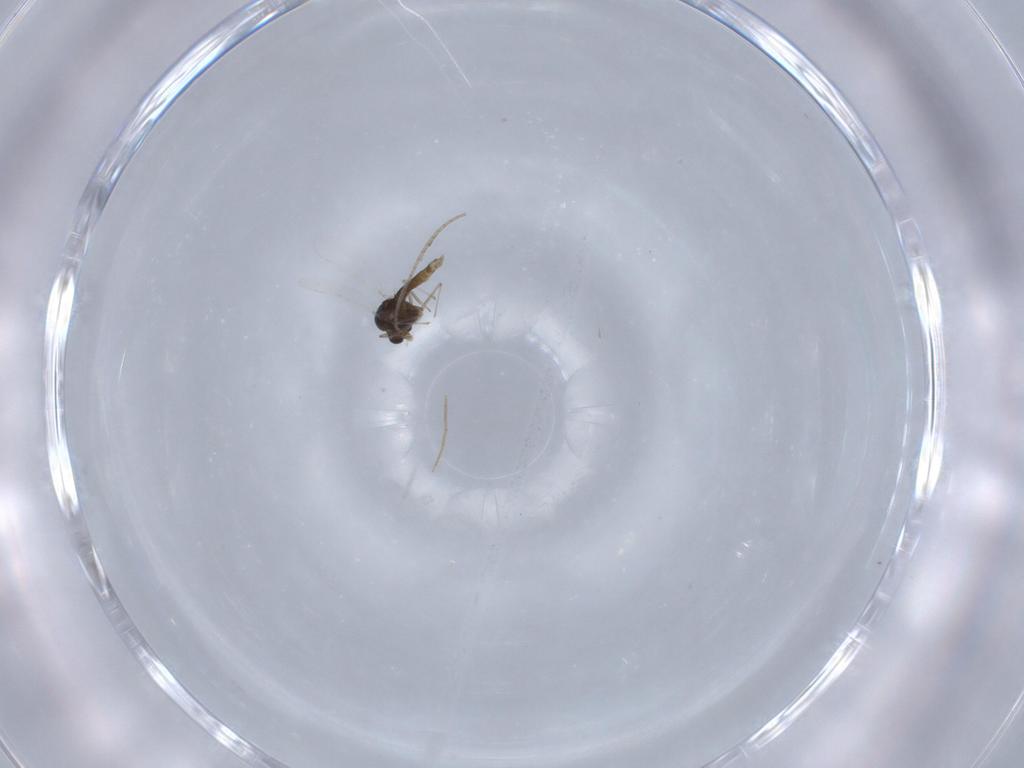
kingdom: Animalia
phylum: Arthropoda
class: Insecta
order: Diptera
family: Chironomidae
